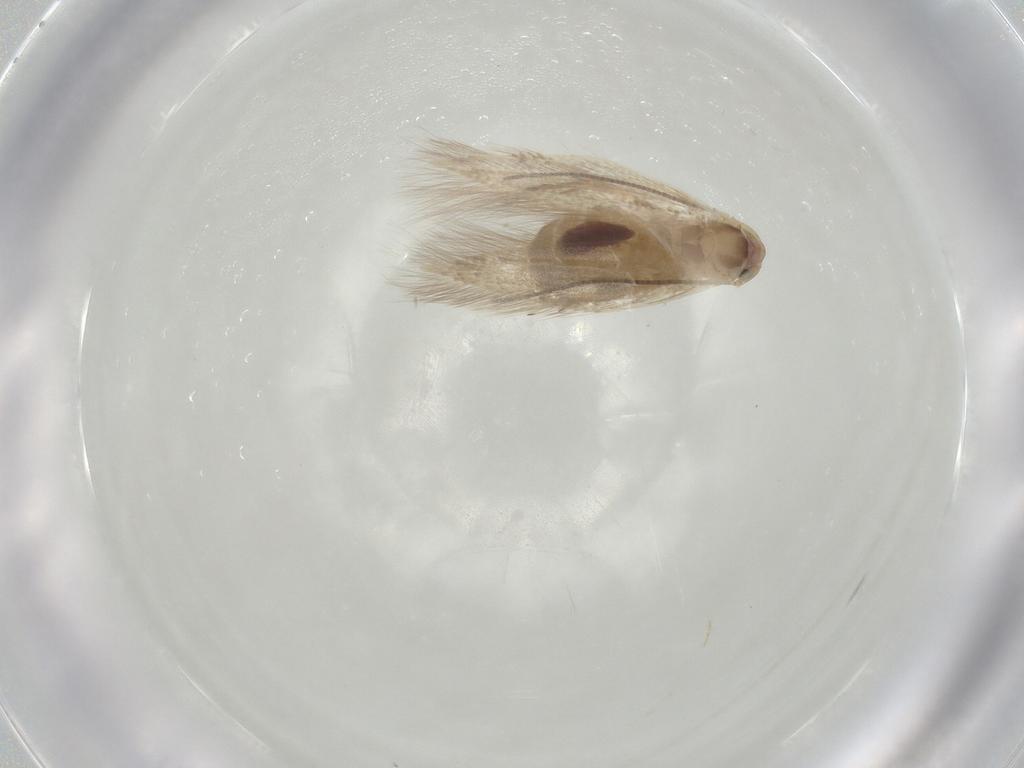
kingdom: Animalia
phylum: Arthropoda
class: Insecta
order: Lepidoptera
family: Bucculatricidae
